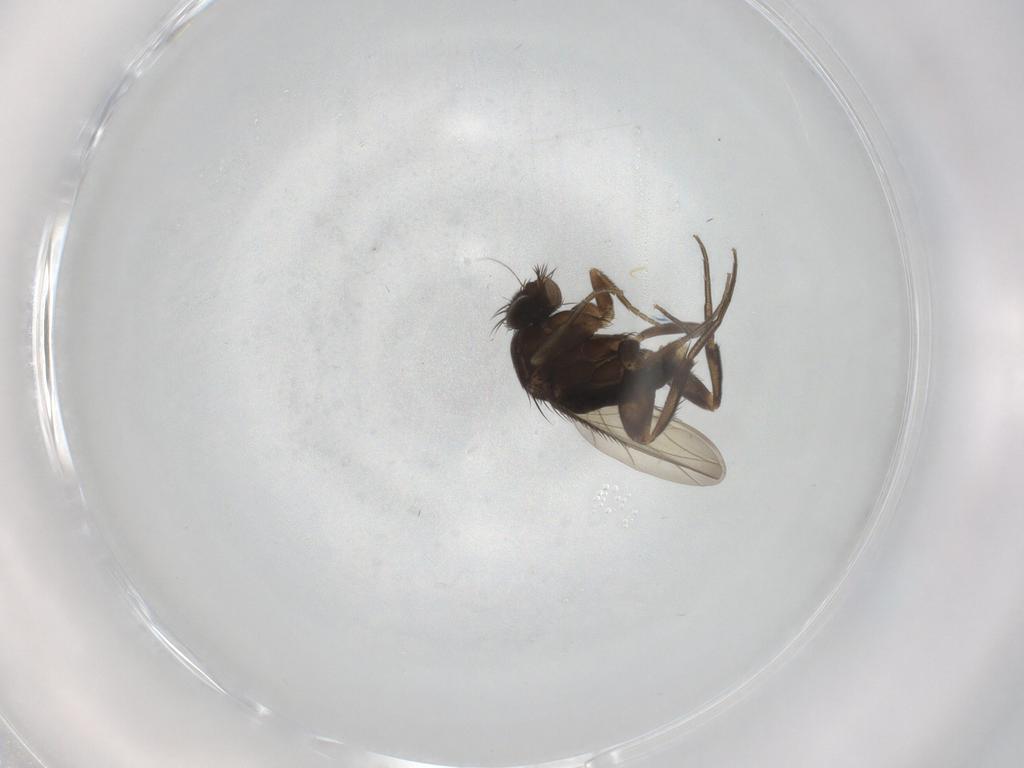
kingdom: Animalia
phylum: Arthropoda
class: Insecta
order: Diptera
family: Phoridae
